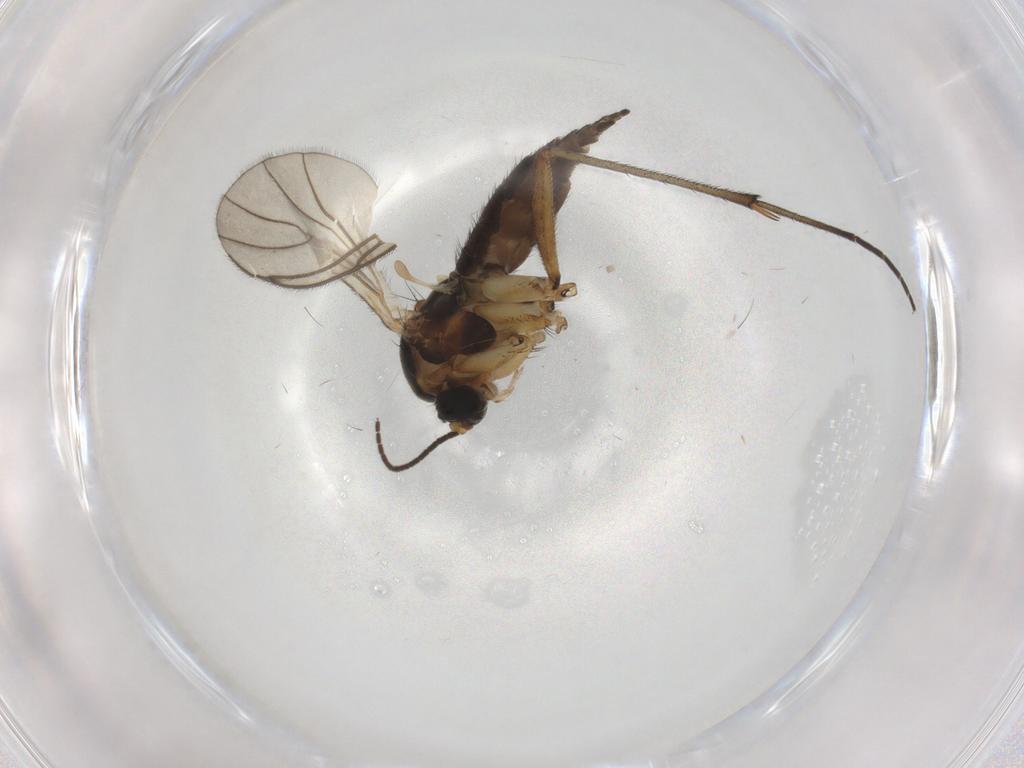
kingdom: Animalia
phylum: Arthropoda
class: Insecta
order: Diptera
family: Sciaridae
